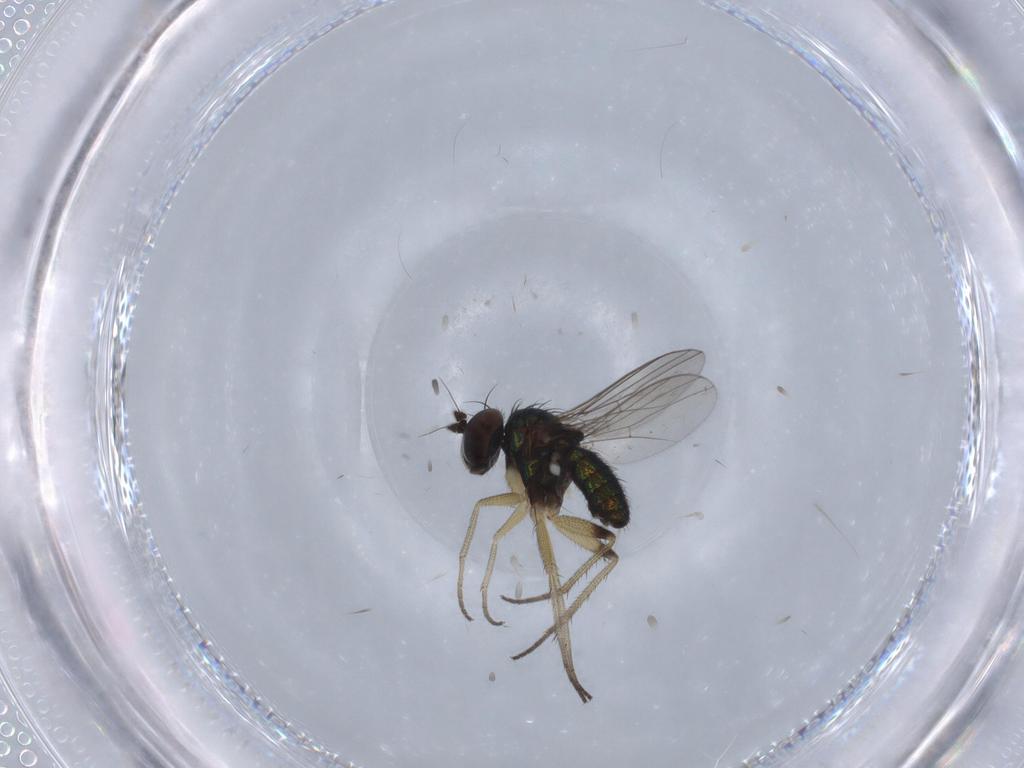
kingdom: Animalia
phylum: Arthropoda
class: Insecta
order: Diptera
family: Dolichopodidae
